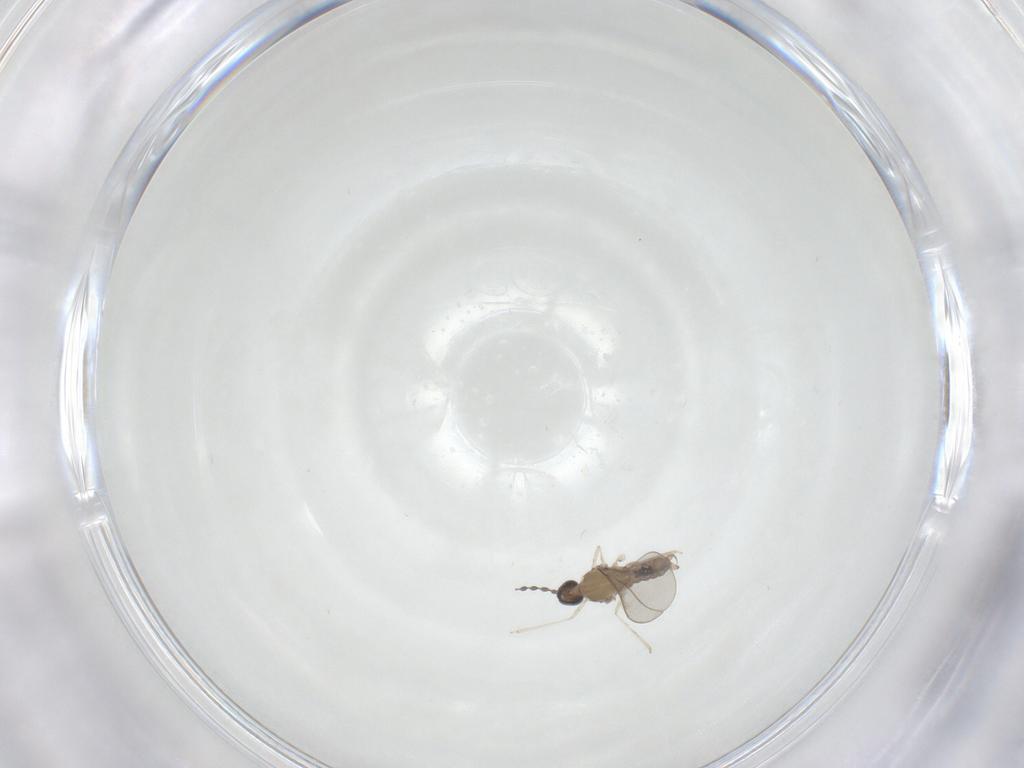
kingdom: Animalia
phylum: Arthropoda
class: Insecta
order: Diptera
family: Cecidomyiidae
